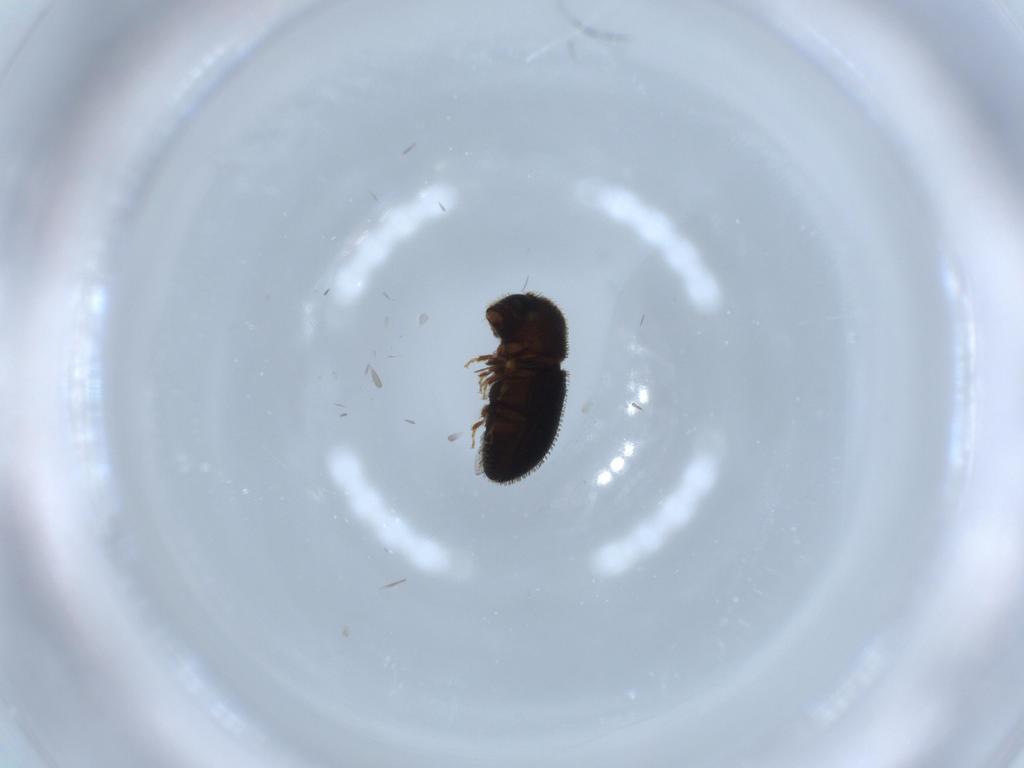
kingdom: Animalia
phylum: Arthropoda
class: Insecta
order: Coleoptera
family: Curculionidae
